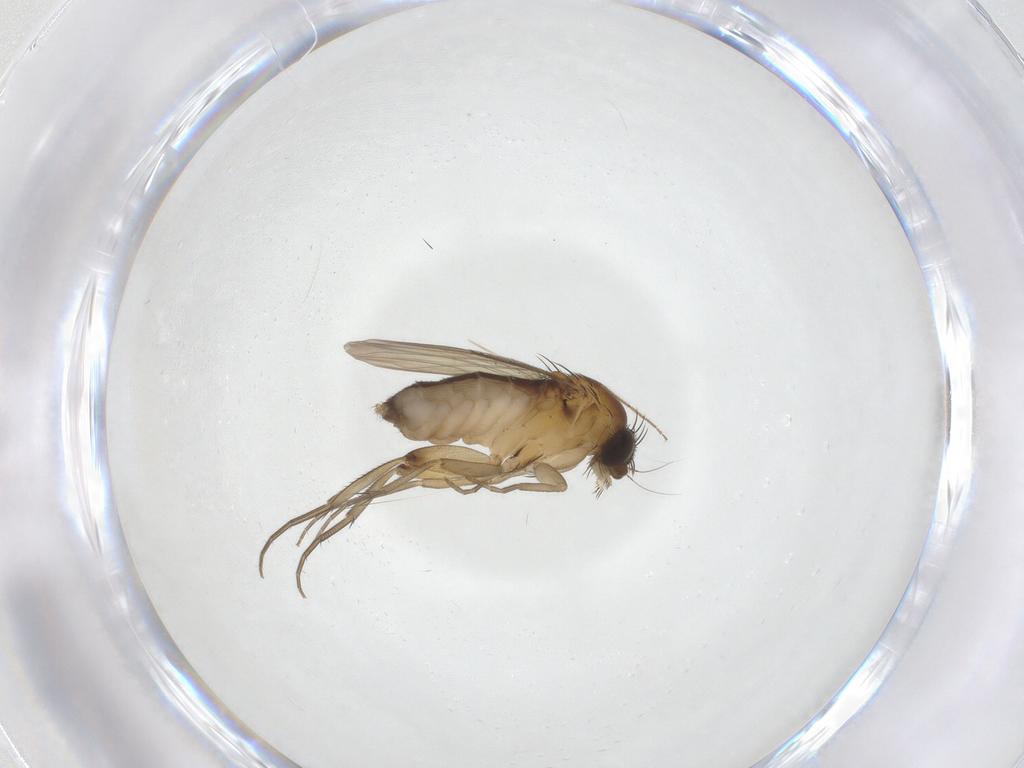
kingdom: Animalia
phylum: Arthropoda
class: Insecta
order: Diptera
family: Phoridae
